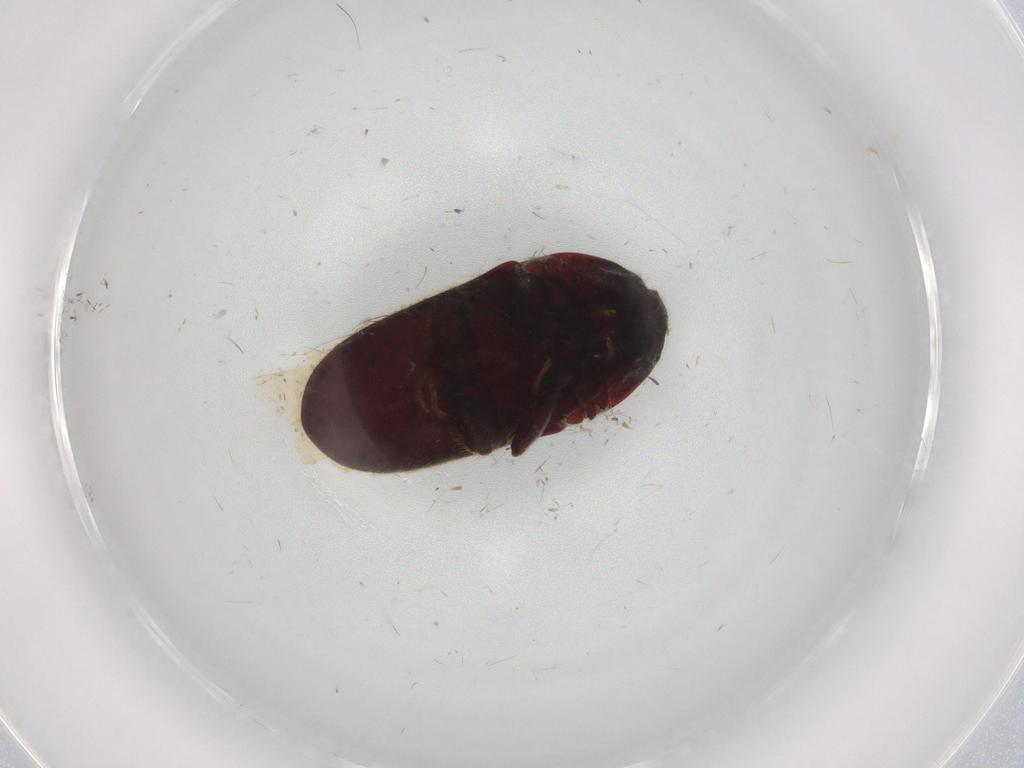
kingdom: Animalia
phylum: Arthropoda
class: Insecta
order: Coleoptera
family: Throscidae
